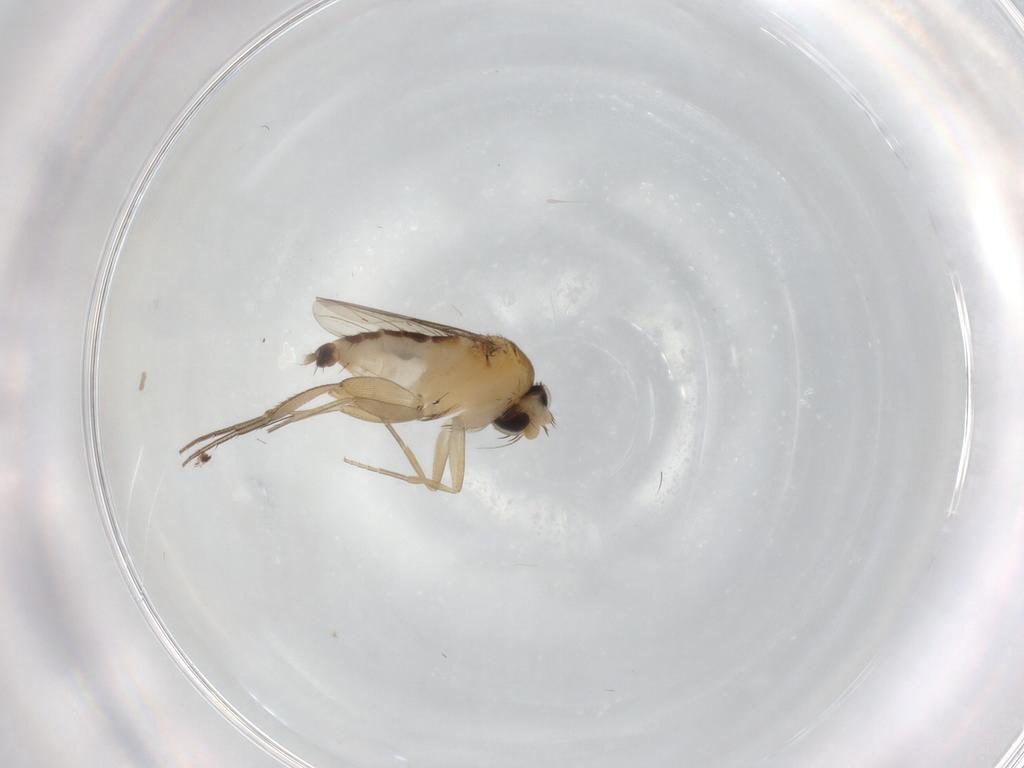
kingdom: Animalia
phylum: Arthropoda
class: Insecta
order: Diptera
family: Phoridae
